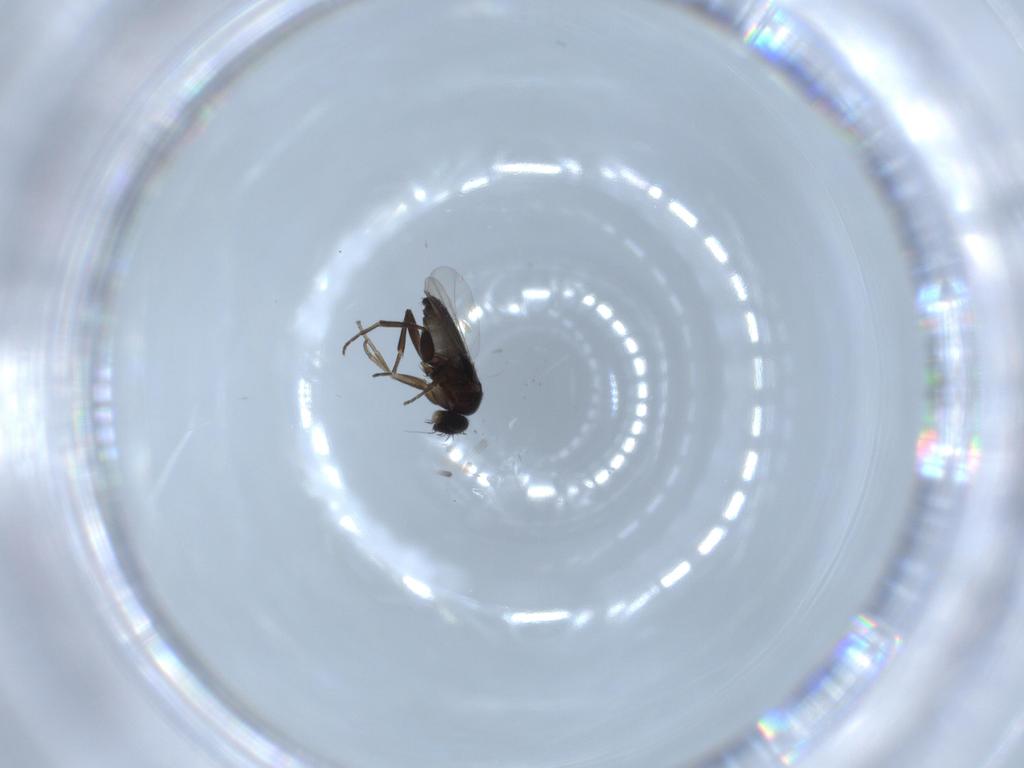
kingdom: Animalia
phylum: Arthropoda
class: Insecta
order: Diptera
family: Phoridae
